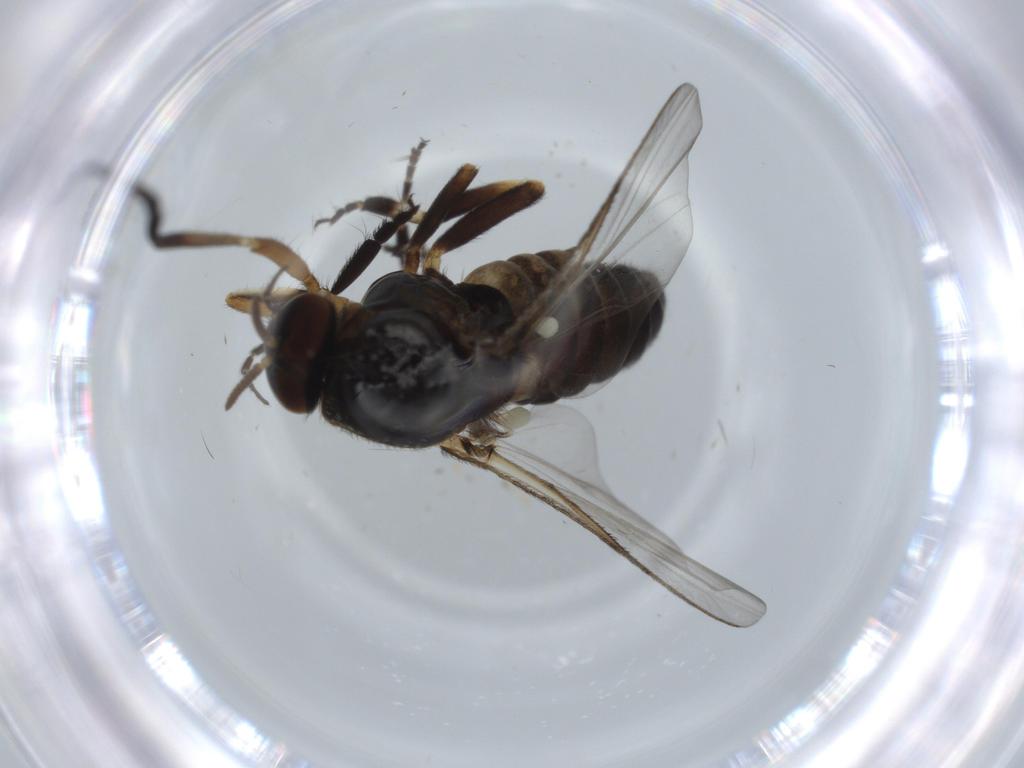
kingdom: Animalia
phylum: Arthropoda
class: Insecta
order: Diptera
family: Phoridae
